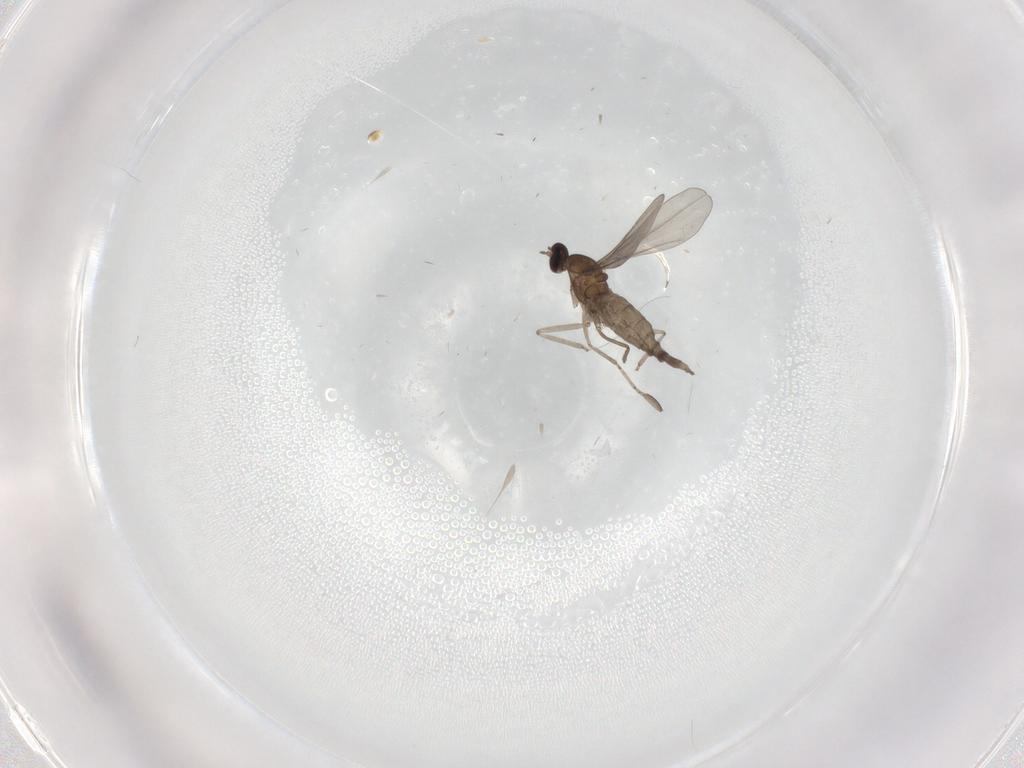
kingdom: Animalia
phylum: Arthropoda
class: Insecta
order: Diptera
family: Cecidomyiidae
